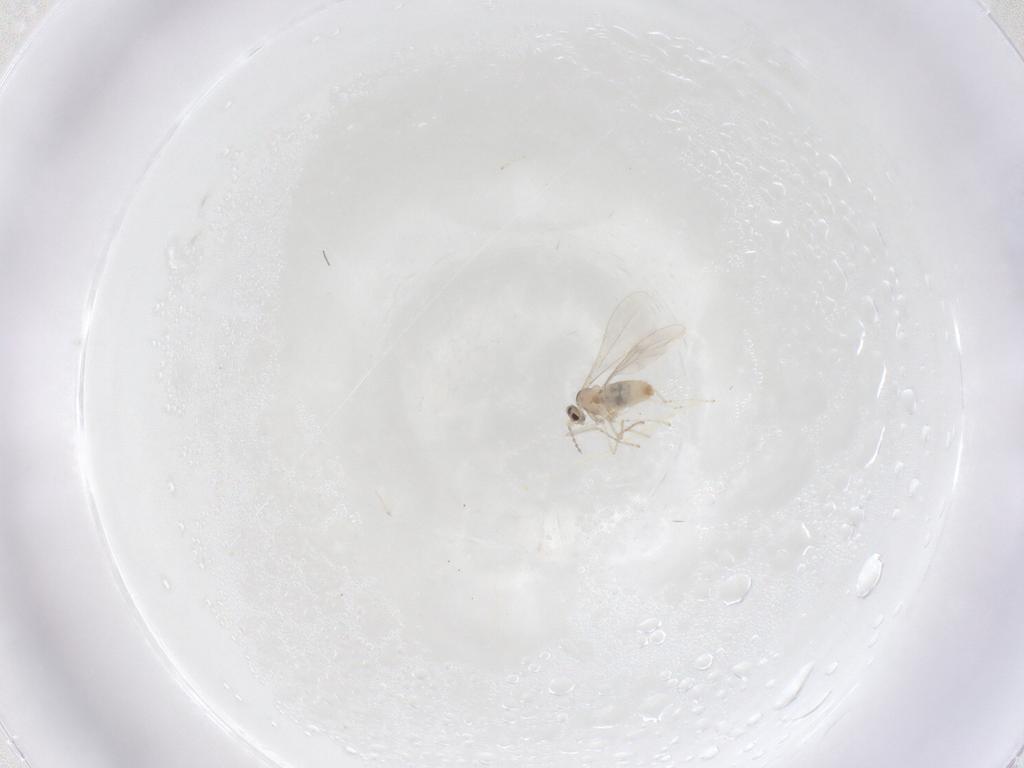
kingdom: Animalia
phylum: Arthropoda
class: Insecta
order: Diptera
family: Cecidomyiidae
